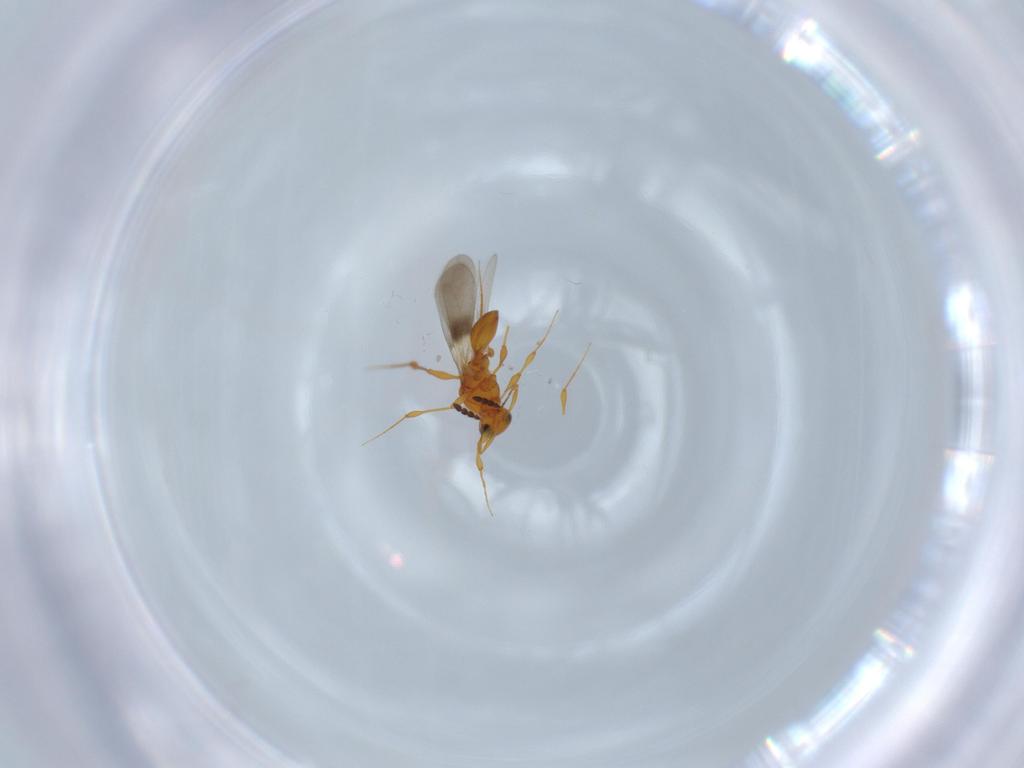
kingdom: Animalia
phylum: Arthropoda
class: Insecta
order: Hymenoptera
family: Platygastridae
